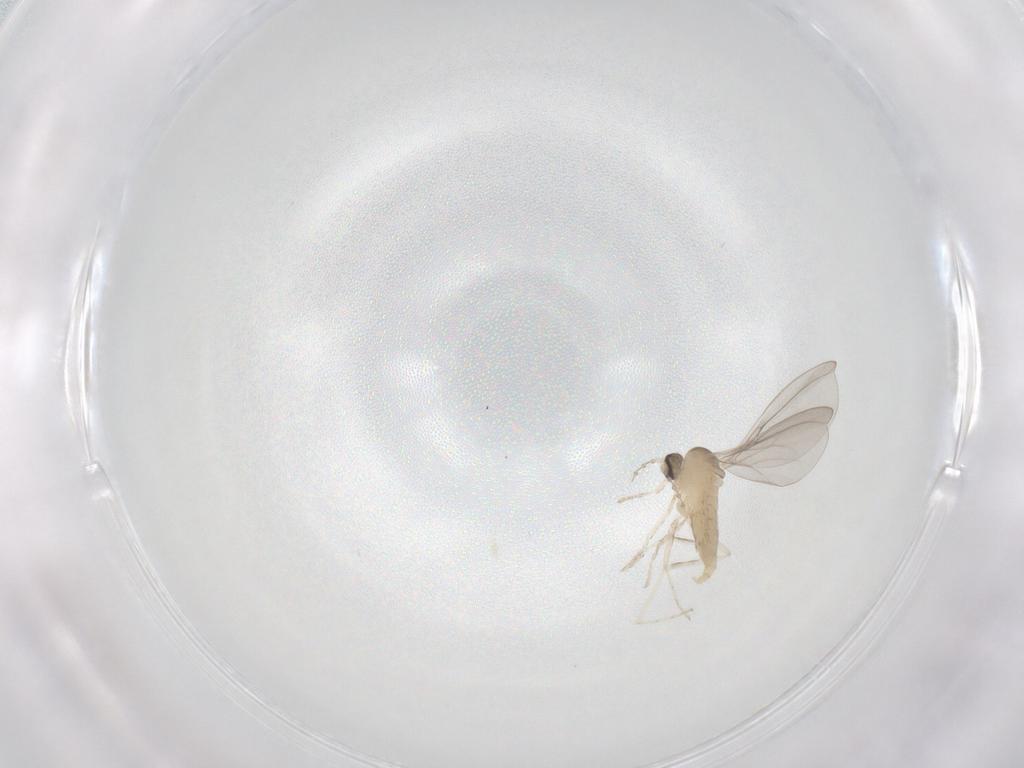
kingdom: Animalia
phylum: Arthropoda
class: Insecta
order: Diptera
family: Cecidomyiidae
